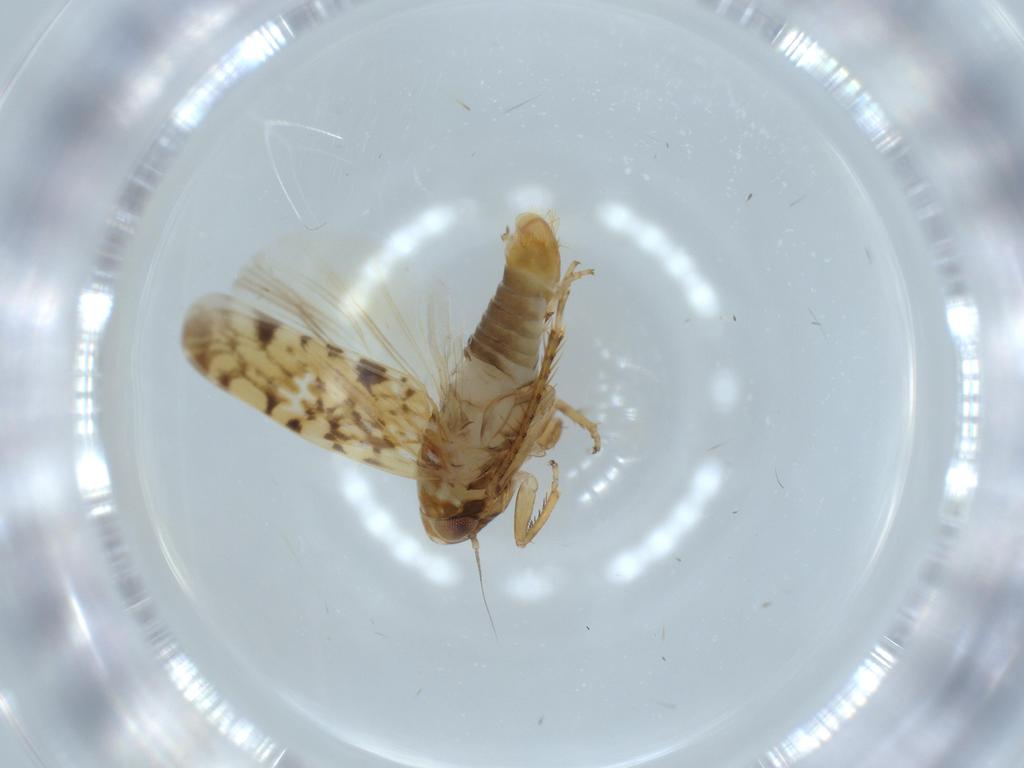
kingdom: Animalia
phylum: Arthropoda
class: Insecta
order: Hemiptera
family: Cicadellidae
